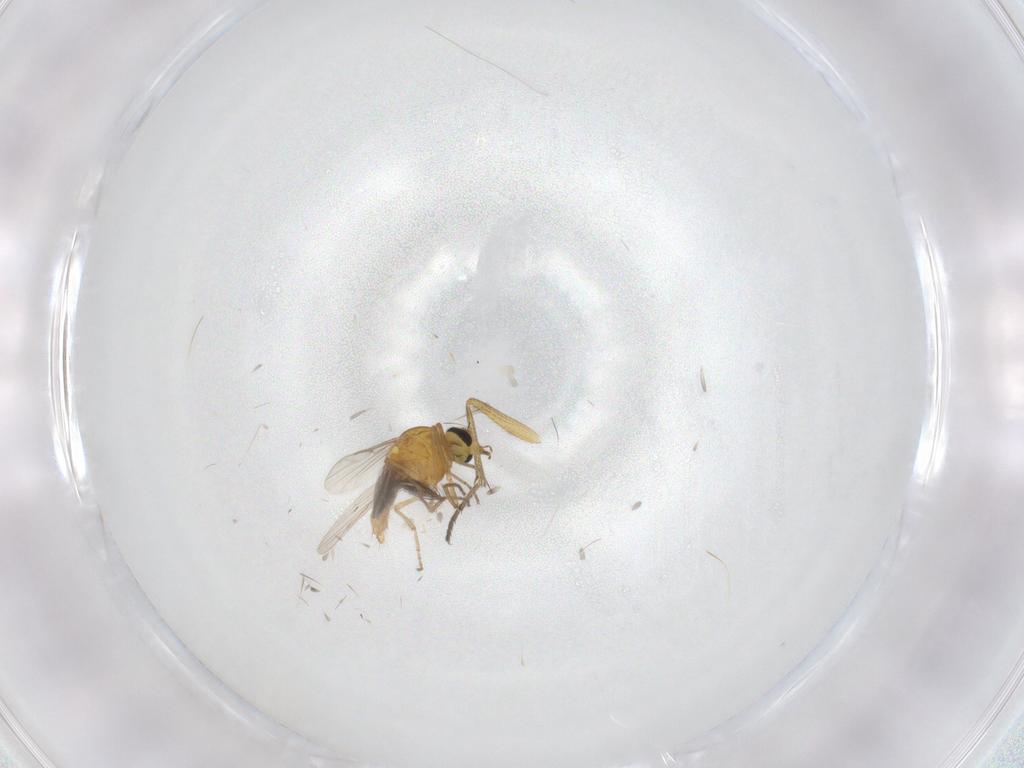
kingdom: Animalia
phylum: Arthropoda
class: Insecta
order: Diptera
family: Ceratopogonidae
